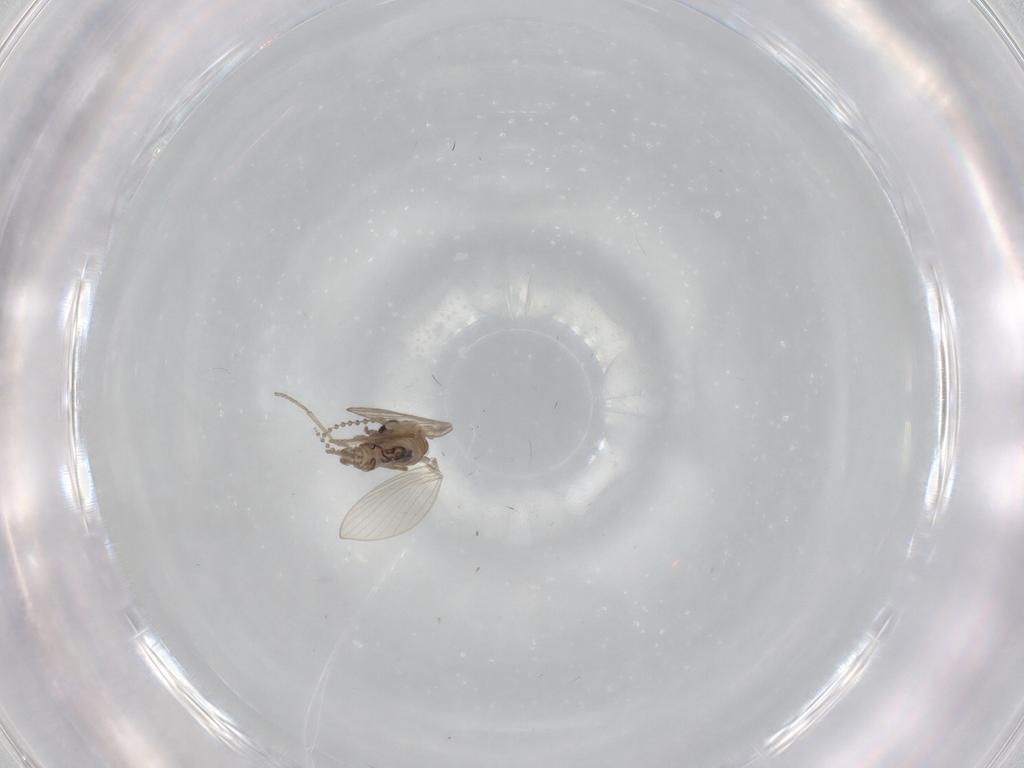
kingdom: Animalia
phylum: Arthropoda
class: Insecta
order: Diptera
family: Psychodidae
